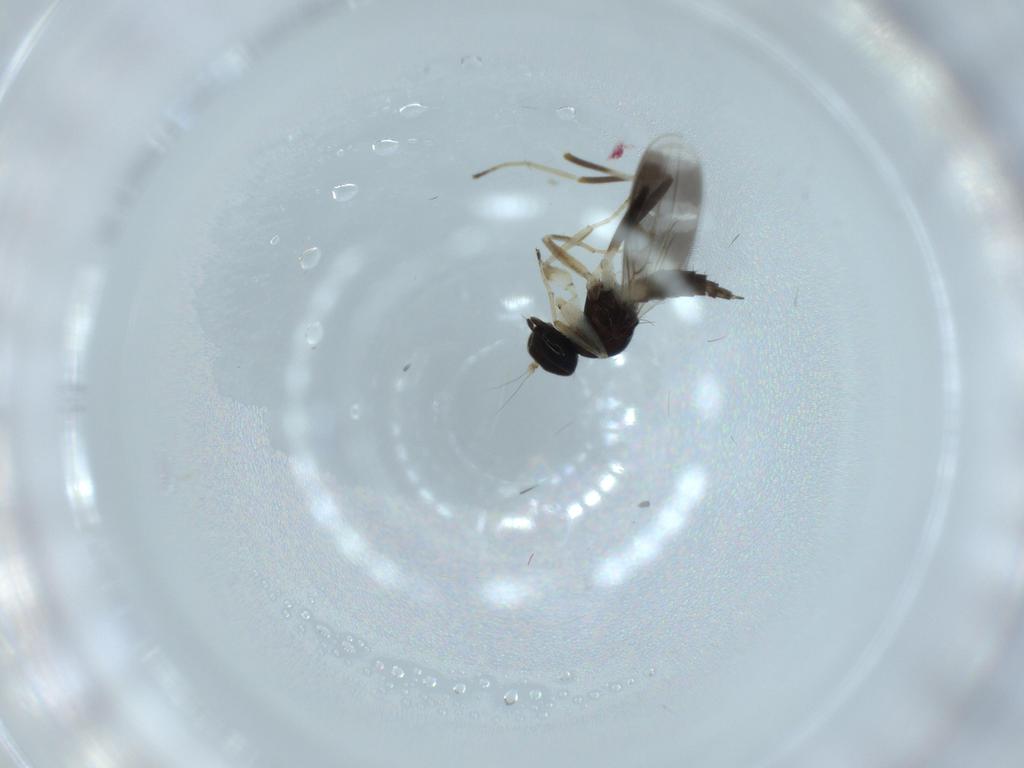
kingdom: Animalia
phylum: Arthropoda
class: Insecta
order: Diptera
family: Hybotidae
